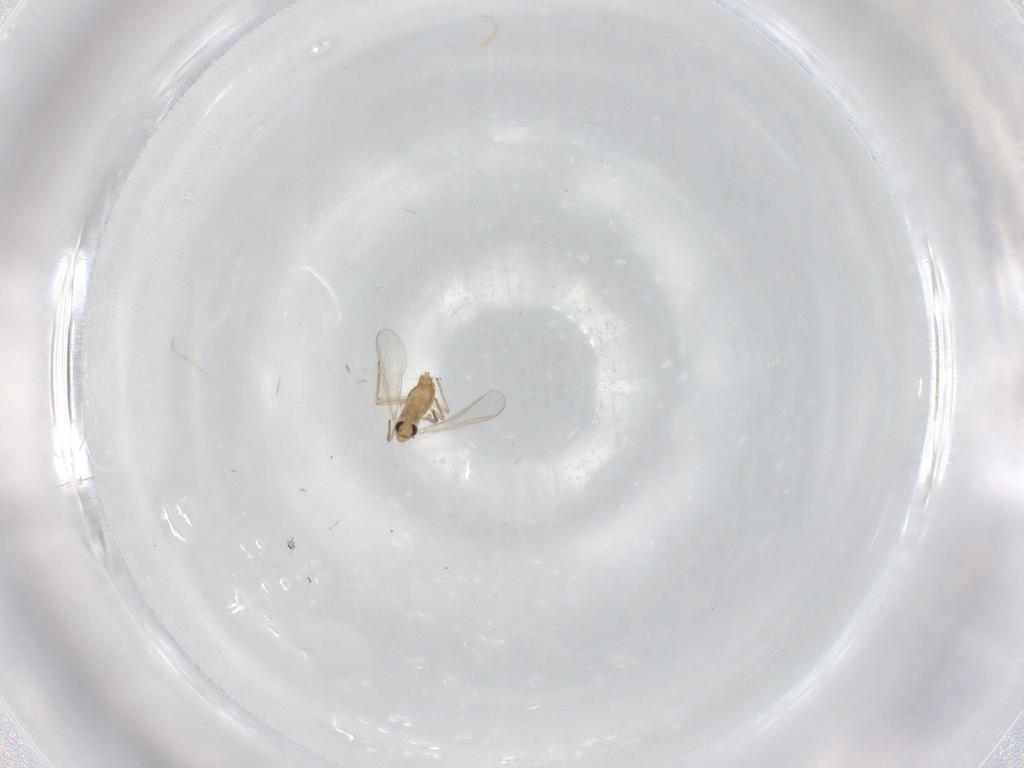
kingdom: Animalia
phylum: Arthropoda
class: Insecta
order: Diptera
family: Chironomidae
